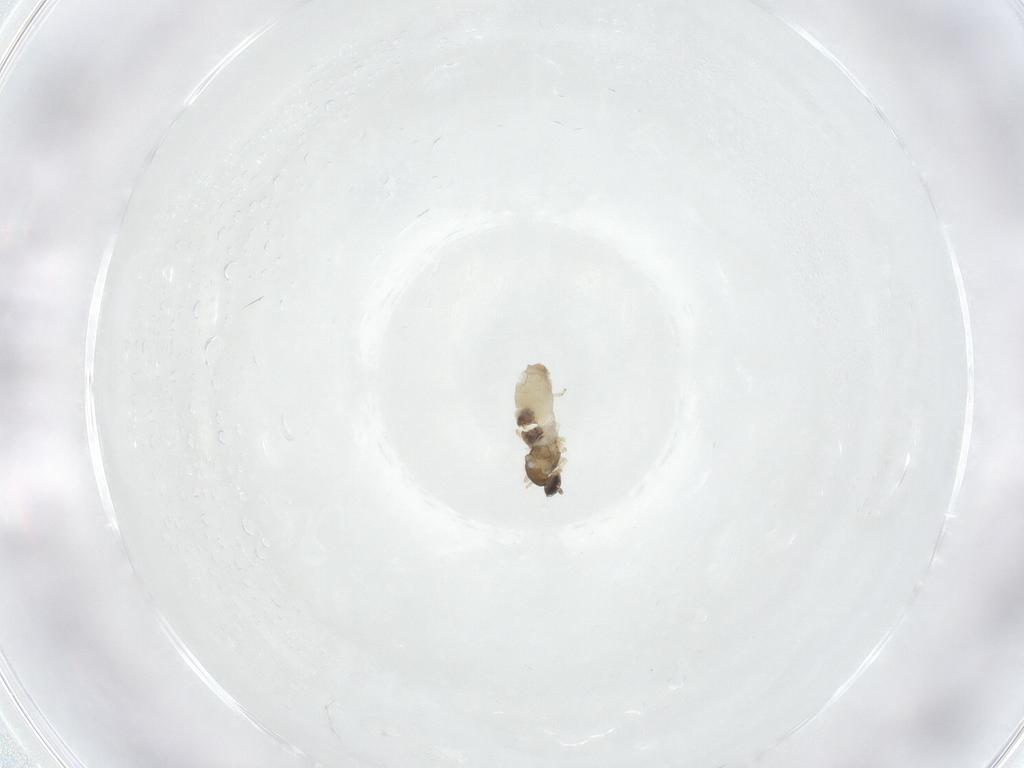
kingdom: Animalia
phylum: Arthropoda
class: Insecta
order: Diptera
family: Cecidomyiidae
